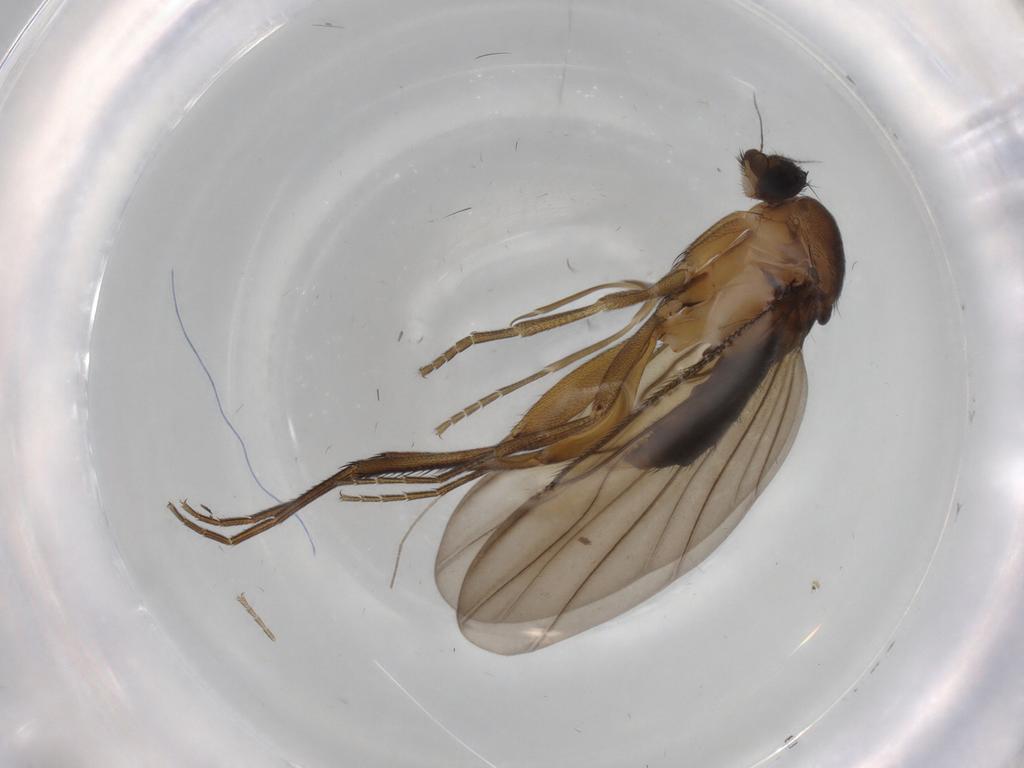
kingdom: Animalia
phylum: Arthropoda
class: Insecta
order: Diptera
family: Phoridae
